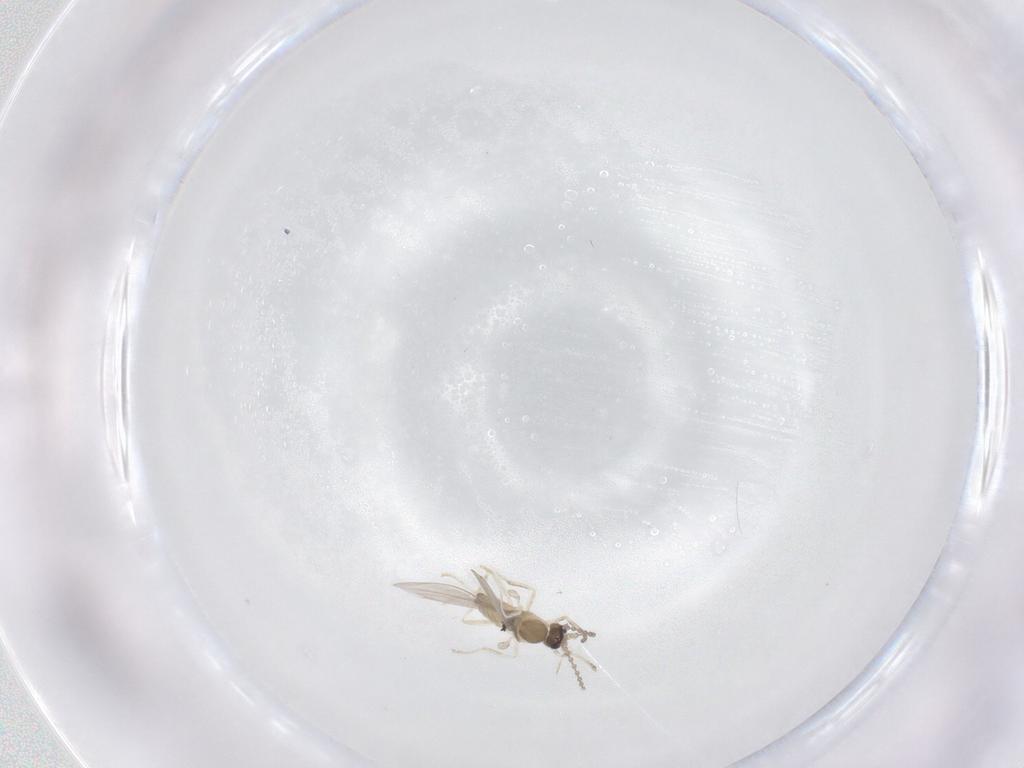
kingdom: Animalia
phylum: Arthropoda
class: Insecta
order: Diptera
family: Cecidomyiidae
